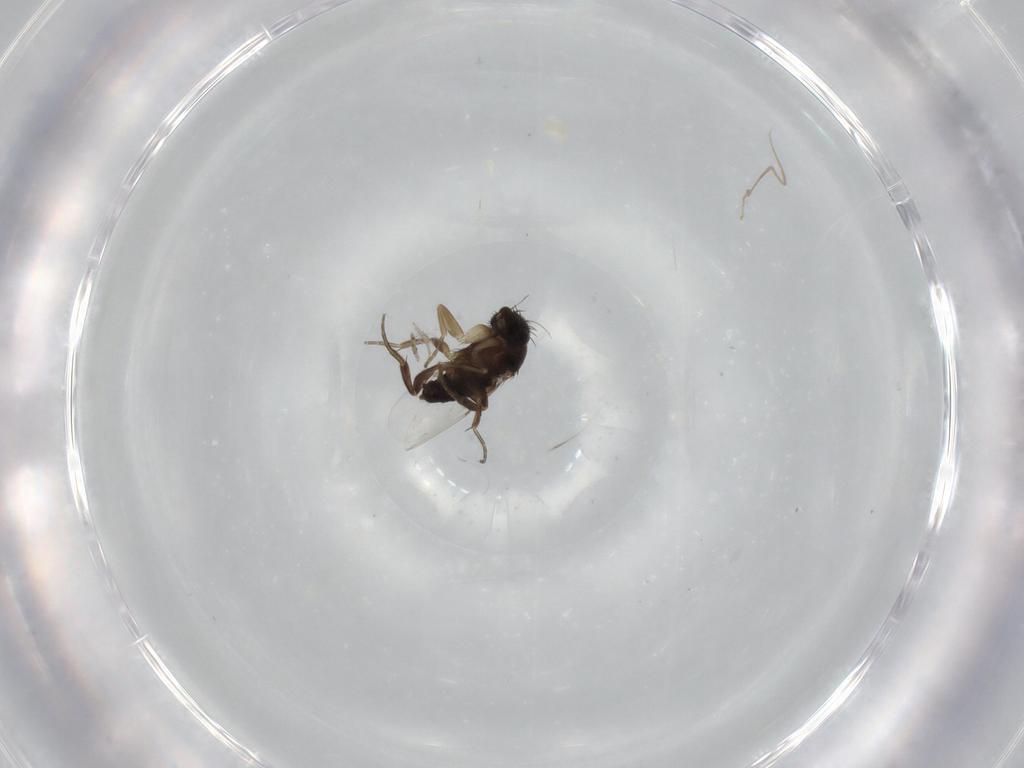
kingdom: Animalia
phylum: Arthropoda
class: Insecta
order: Diptera
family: Phoridae
